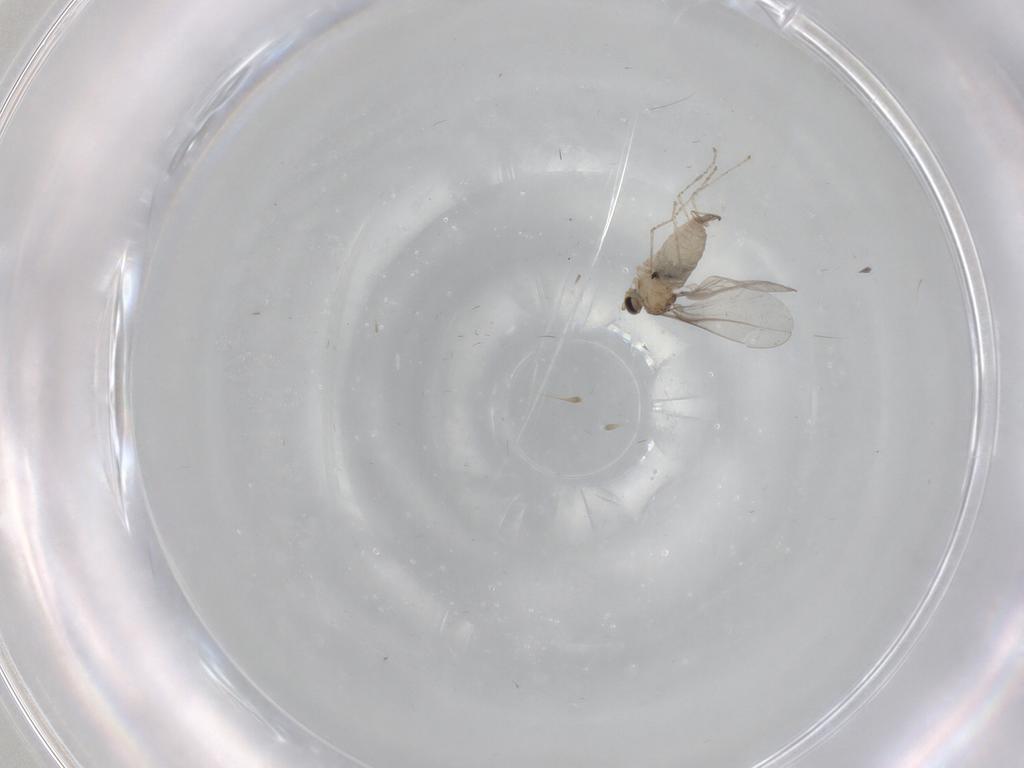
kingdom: Animalia
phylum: Arthropoda
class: Insecta
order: Diptera
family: Cecidomyiidae
